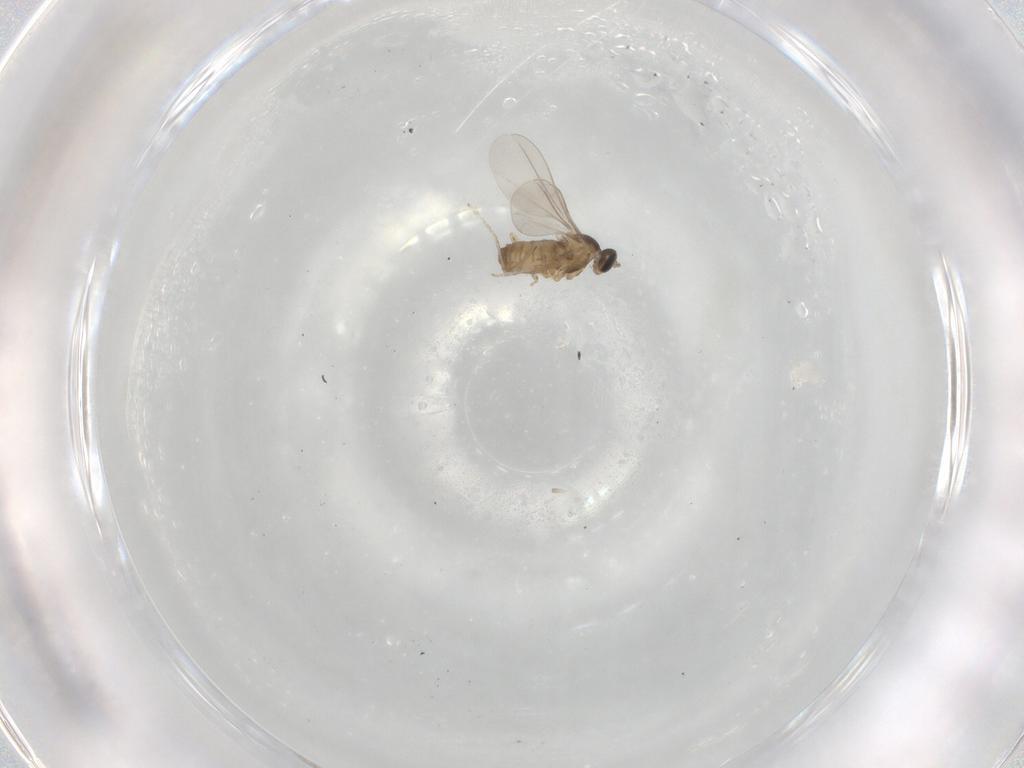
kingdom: Animalia
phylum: Arthropoda
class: Insecta
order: Diptera
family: Cecidomyiidae
